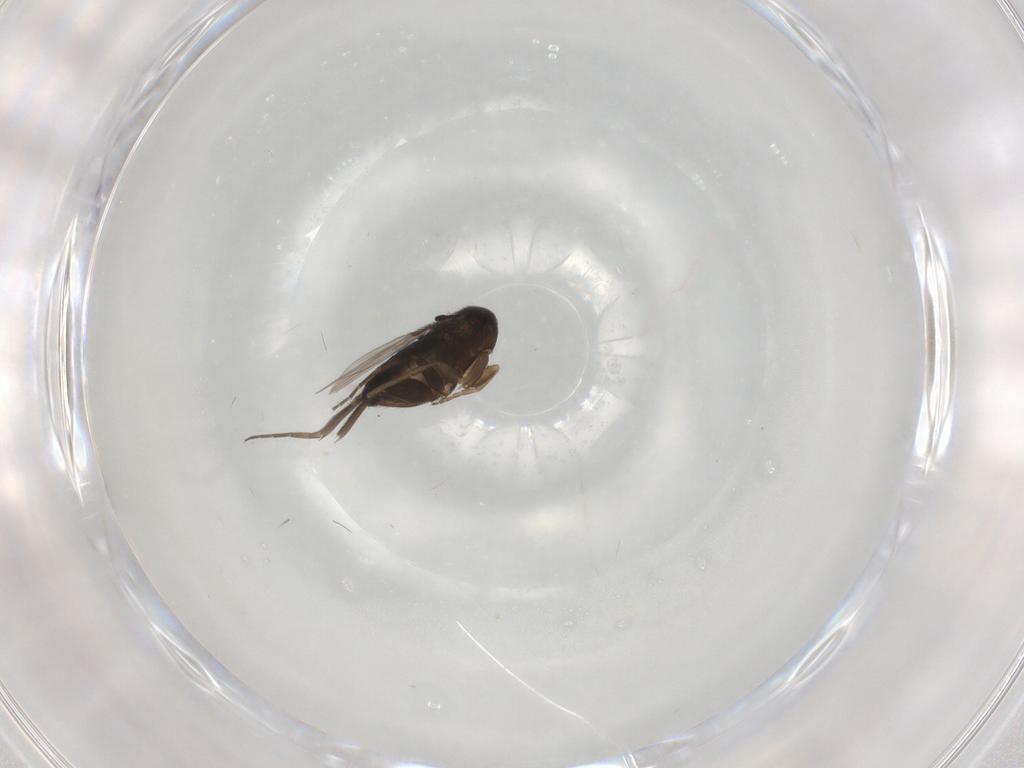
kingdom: Animalia
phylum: Arthropoda
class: Insecta
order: Diptera
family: Phoridae
